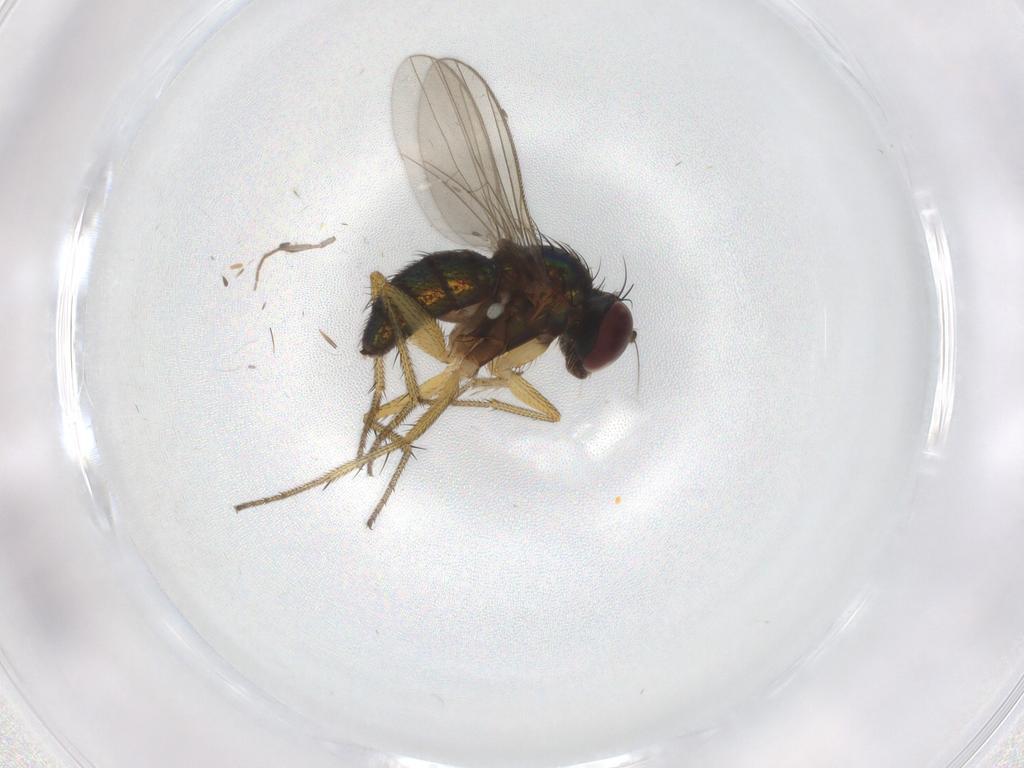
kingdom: Animalia
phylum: Arthropoda
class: Insecta
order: Diptera
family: Sciaridae
